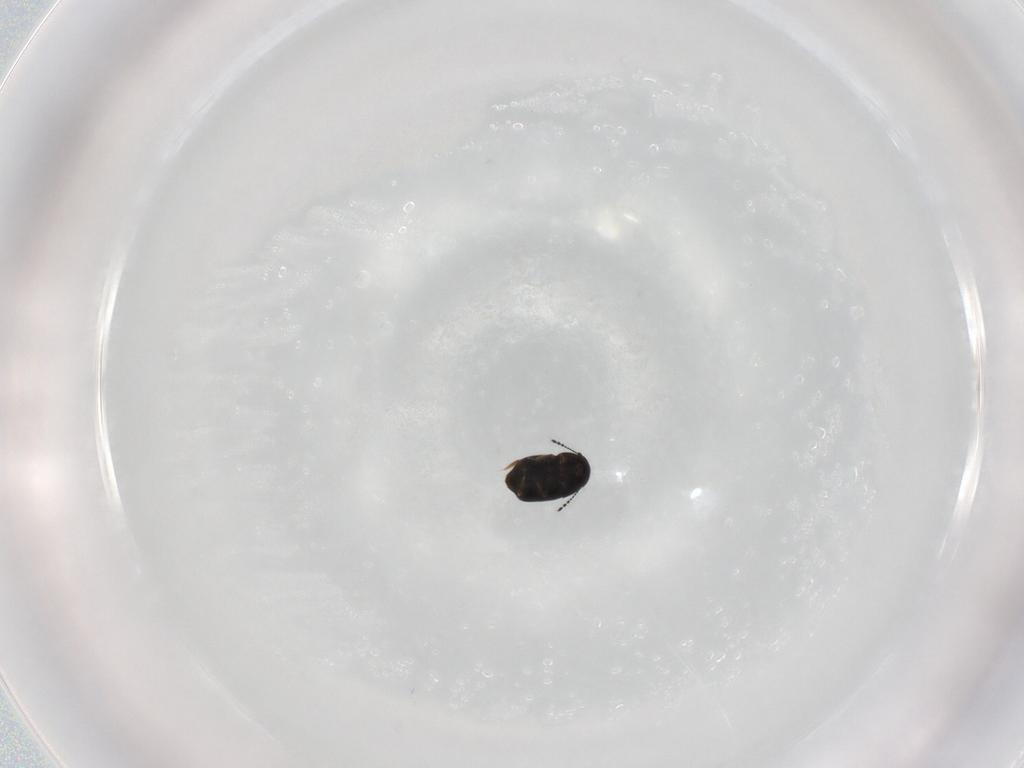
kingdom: Animalia
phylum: Arthropoda
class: Insecta
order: Coleoptera
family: Ptiliidae
